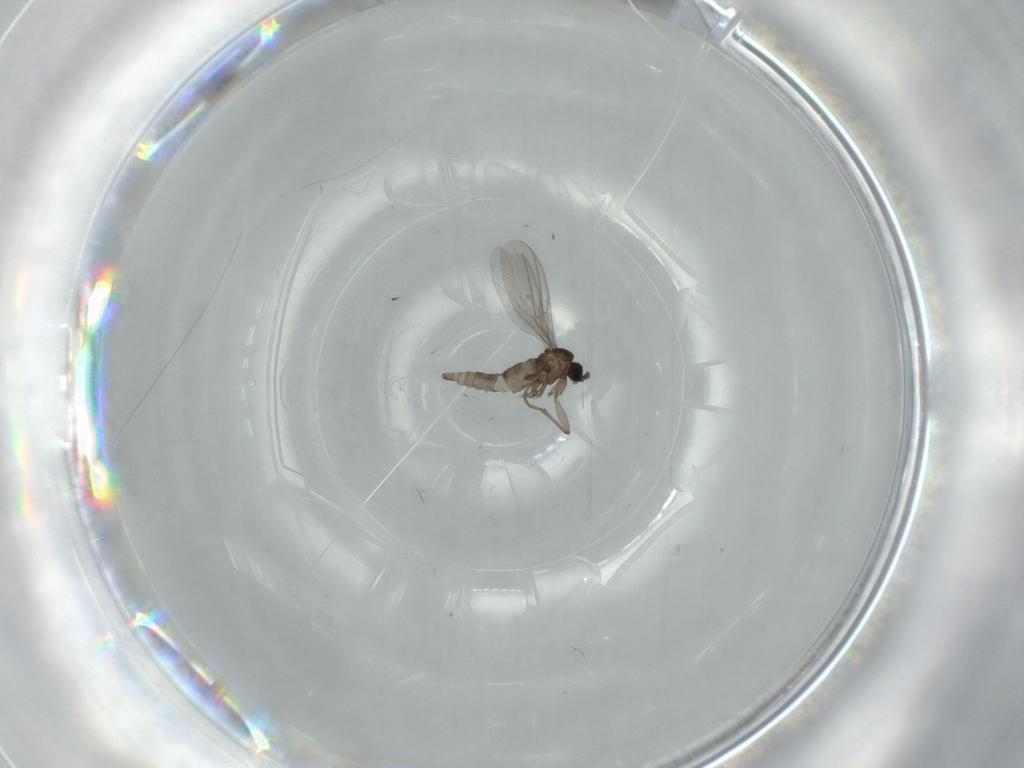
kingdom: Animalia
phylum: Arthropoda
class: Insecta
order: Diptera
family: Sciaridae
